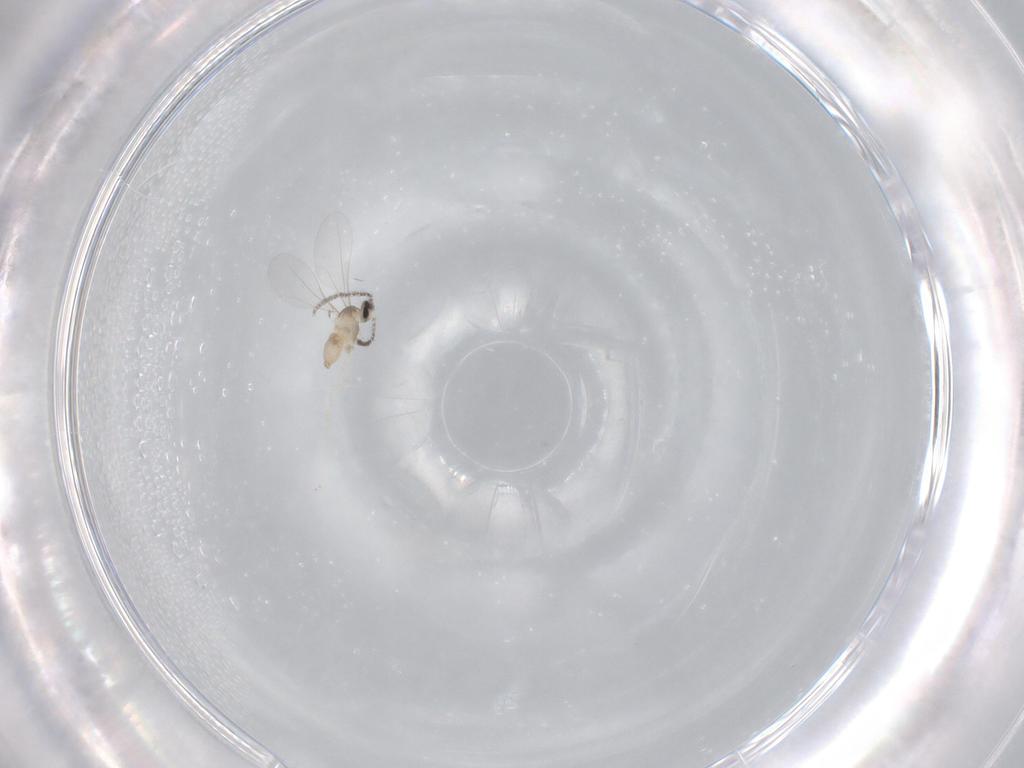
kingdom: Animalia
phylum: Arthropoda
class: Insecta
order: Diptera
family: Cecidomyiidae
